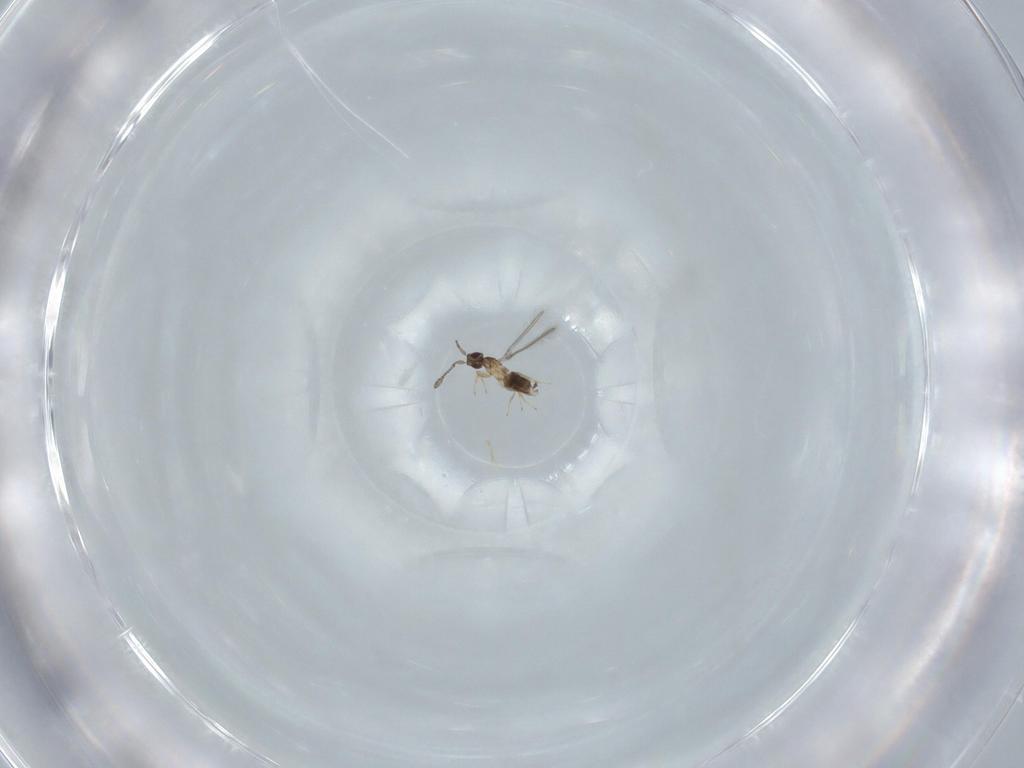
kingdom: Animalia
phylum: Arthropoda
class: Insecta
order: Hymenoptera
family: Mymaridae
